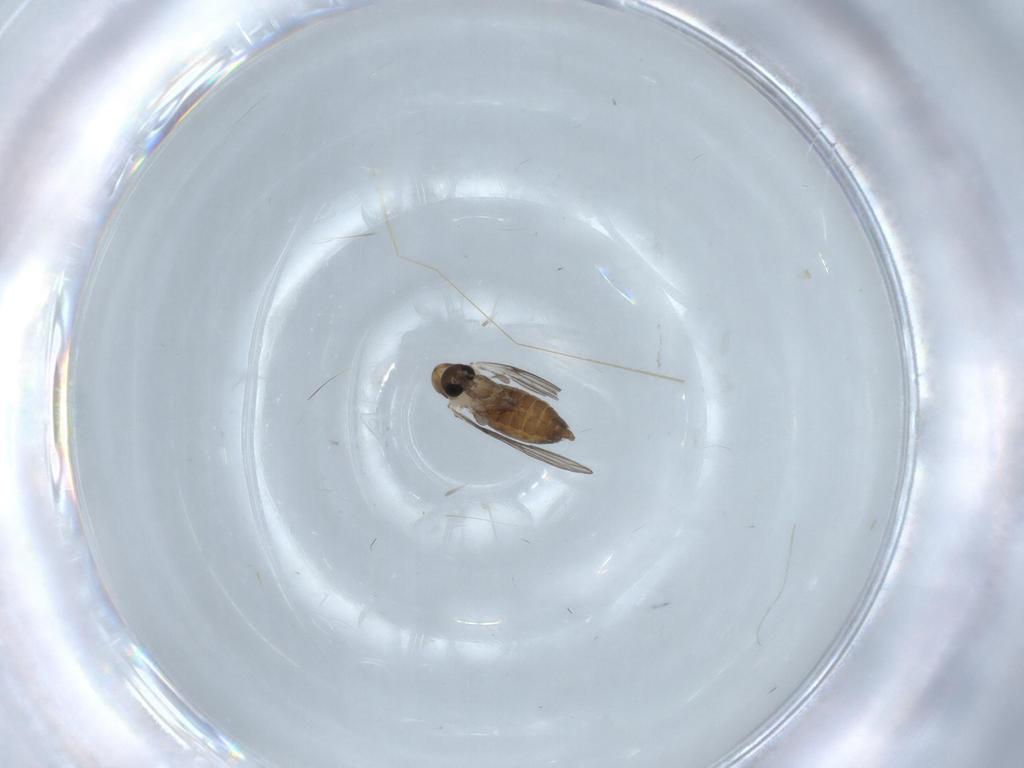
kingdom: Animalia
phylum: Arthropoda
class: Insecta
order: Diptera
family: Psychodidae
